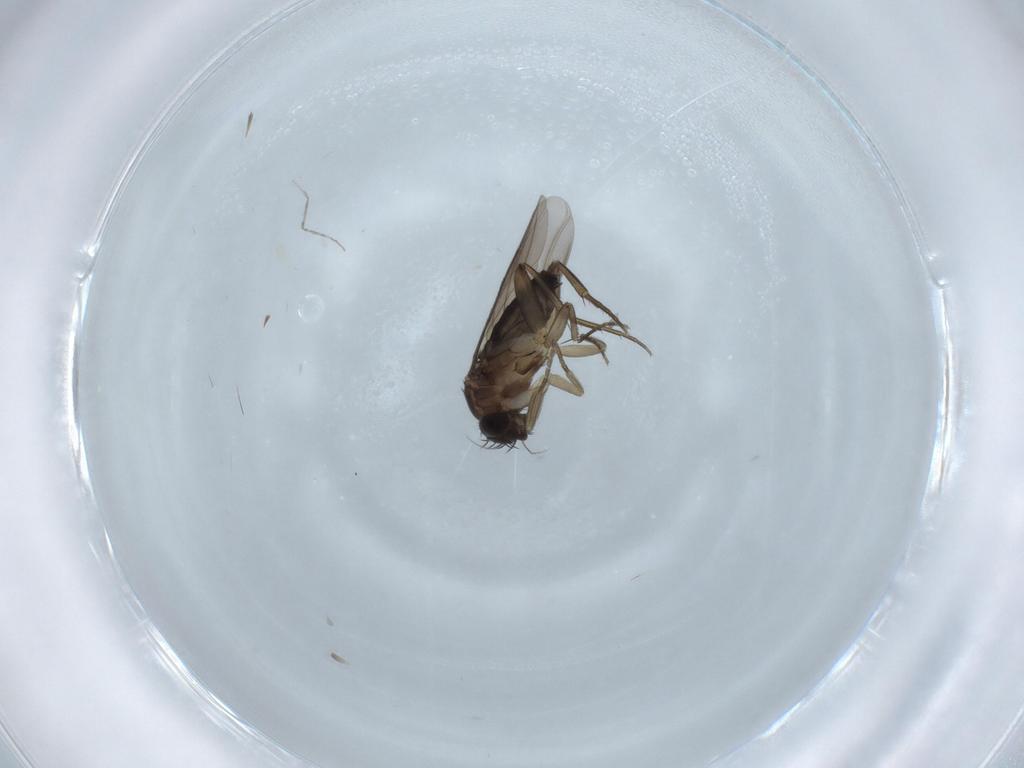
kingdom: Animalia
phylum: Arthropoda
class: Insecta
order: Diptera
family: Phoridae
